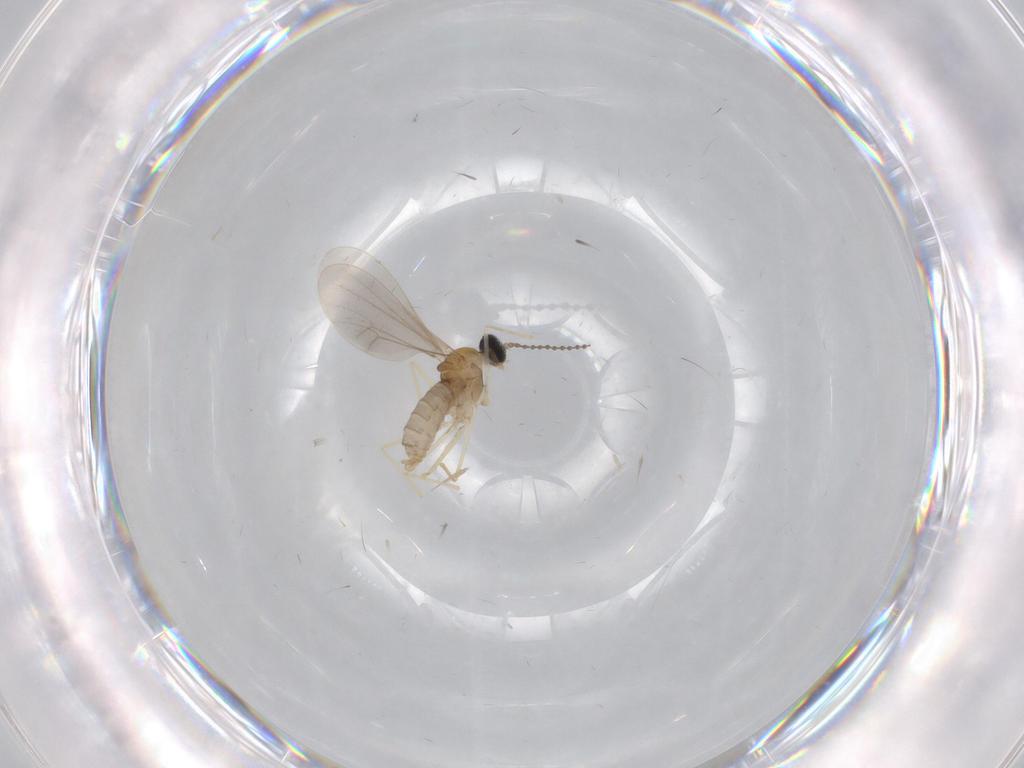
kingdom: Animalia
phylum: Arthropoda
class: Insecta
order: Diptera
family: Cecidomyiidae
